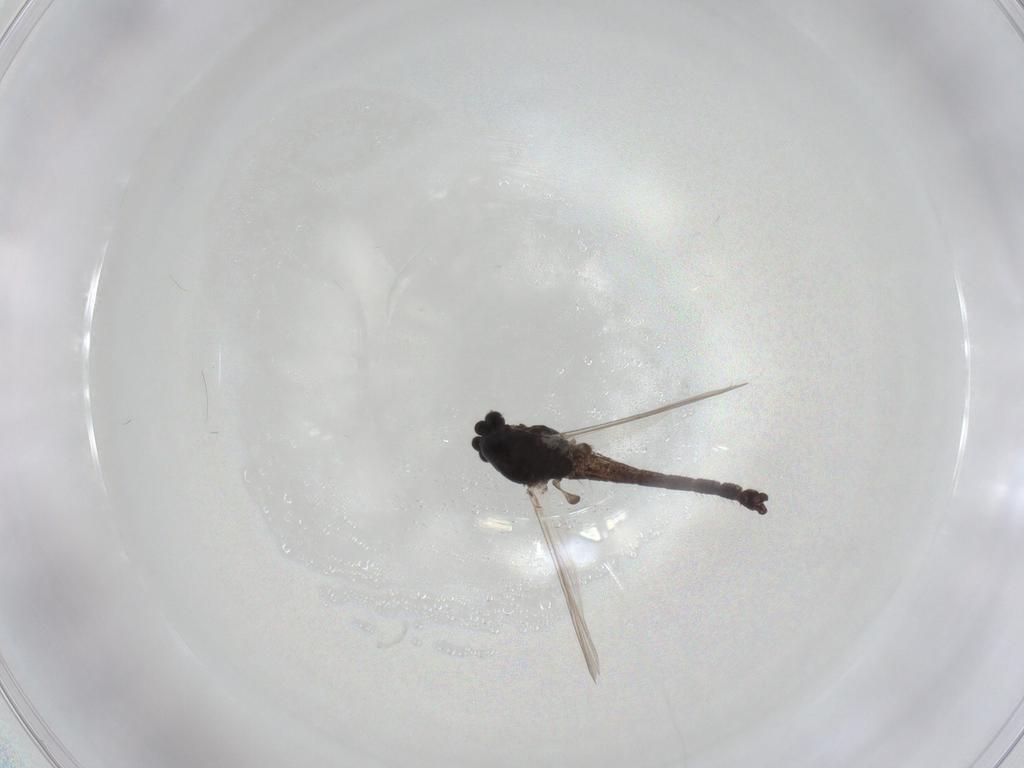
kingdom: Animalia
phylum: Arthropoda
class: Insecta
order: Diptera
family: Chironomidae
